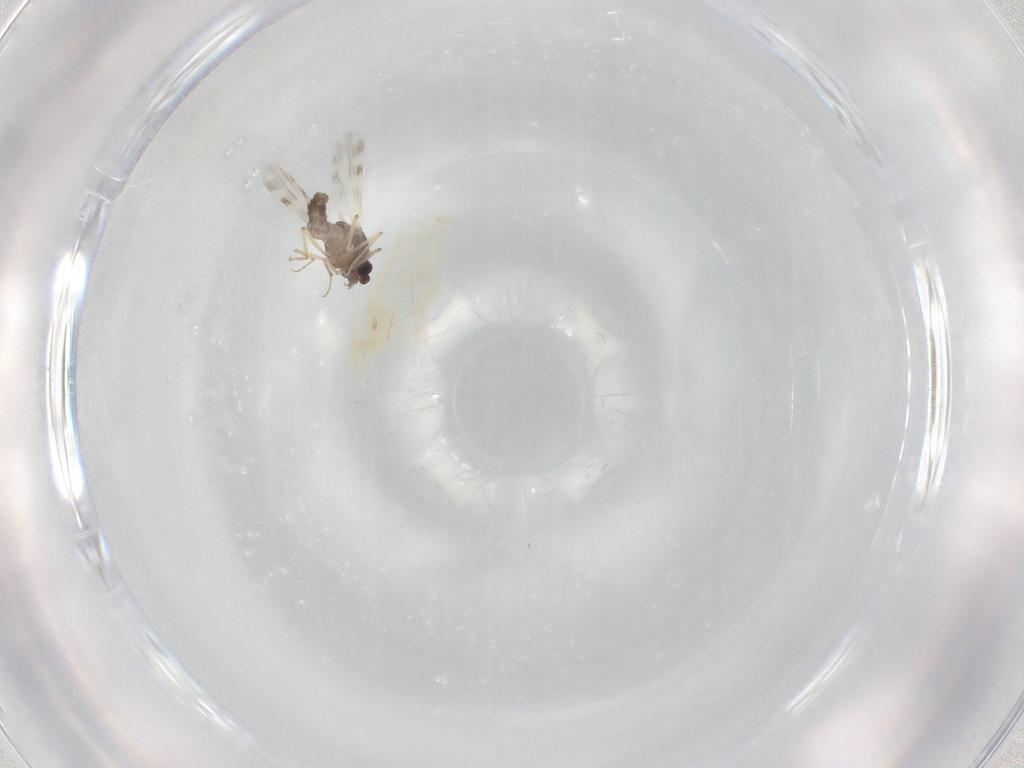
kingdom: Animalia
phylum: Arthropoda
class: Insecta
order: Diptera
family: Ceratopogonidae
